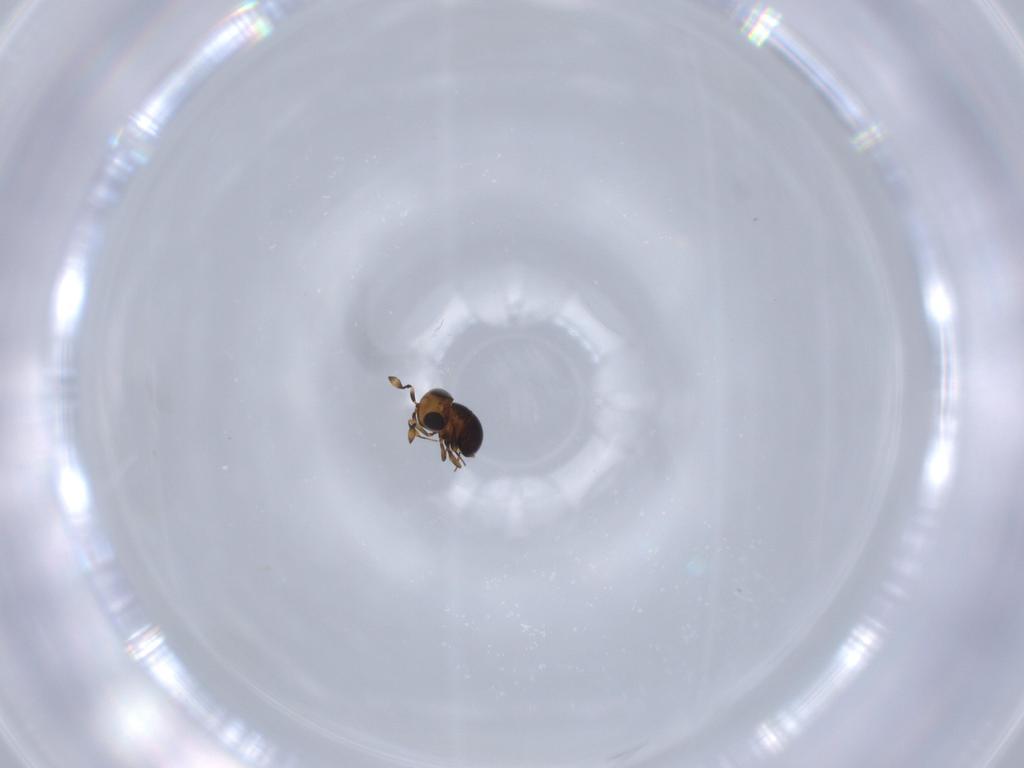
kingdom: Animalia
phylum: Arthropoda
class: Insecta
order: Hymenoptera
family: Scelionidae
